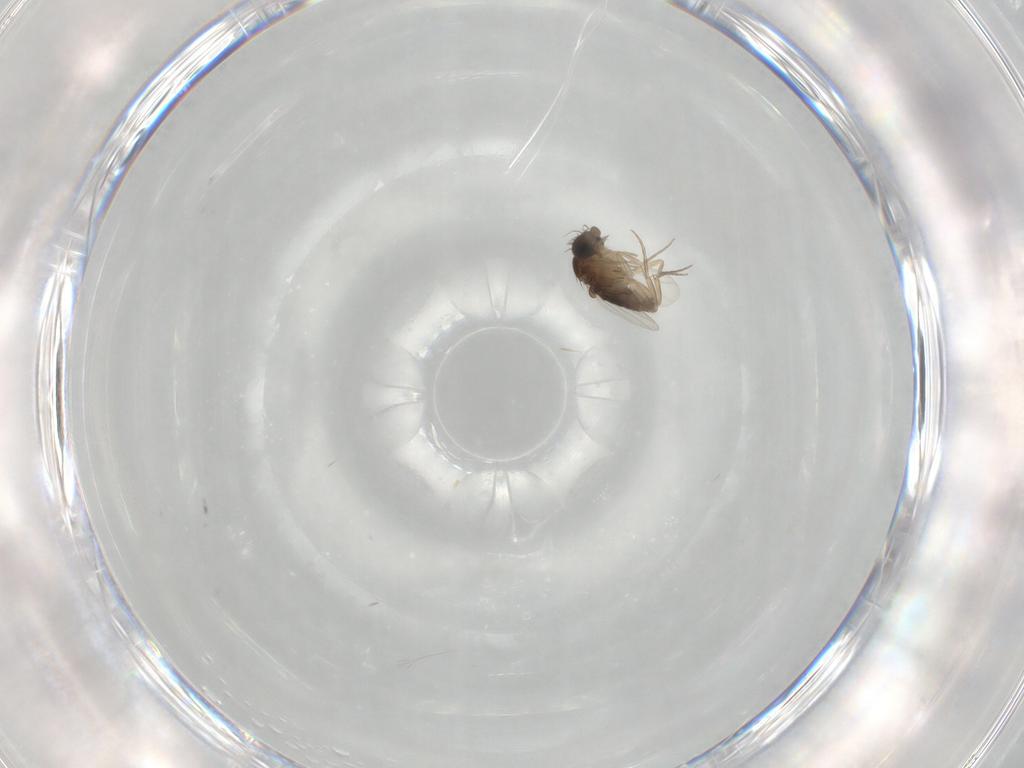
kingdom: Animalia
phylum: Arthropoda
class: Insecta
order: Diptera
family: Phoridae
